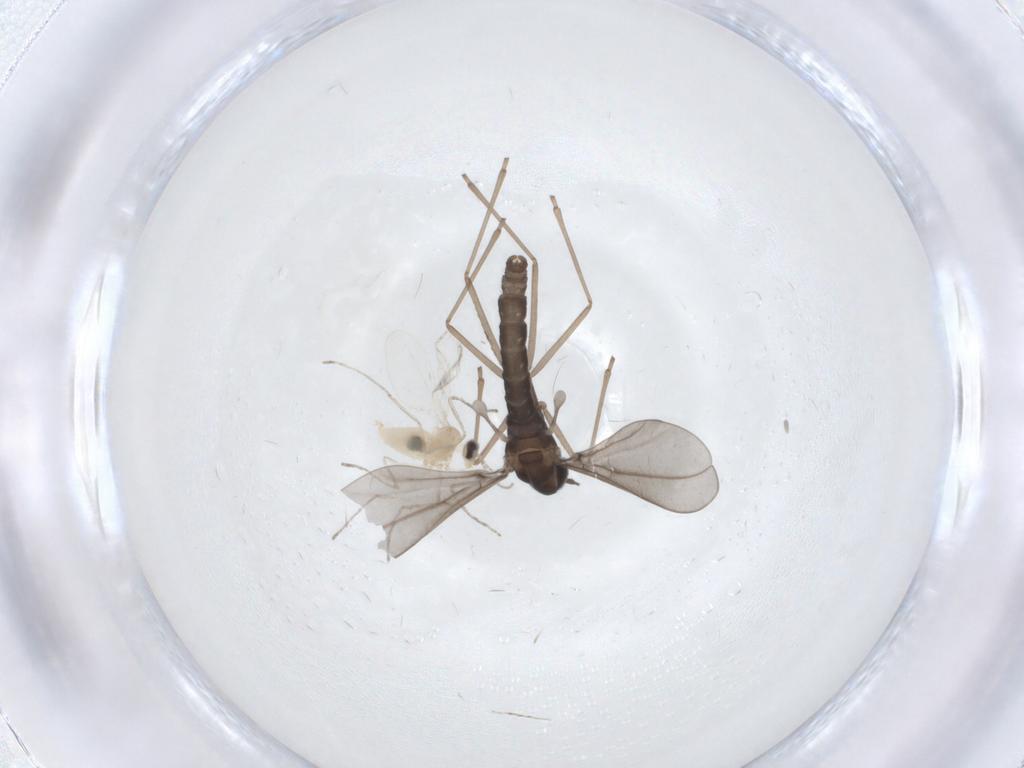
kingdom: Animalia
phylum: Arthropoda
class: Insecta
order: Diptera
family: Cecidomyiidae
